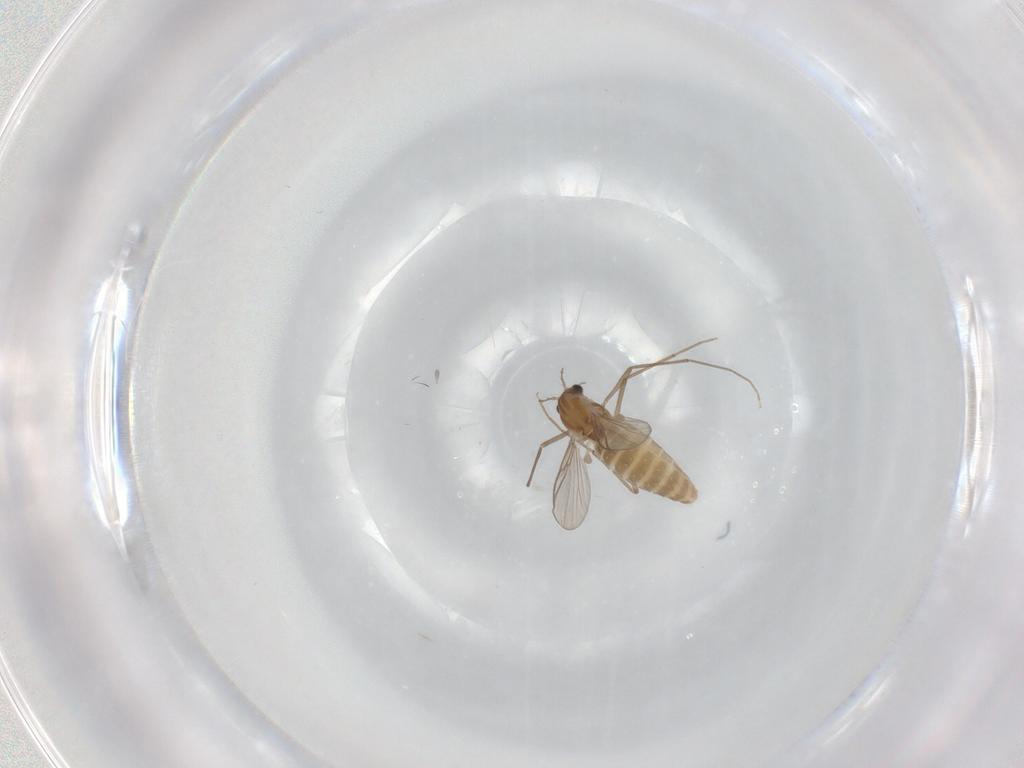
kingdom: Animalia
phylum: Arthropoda
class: Insecta
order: Diptera
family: Chironomidae
